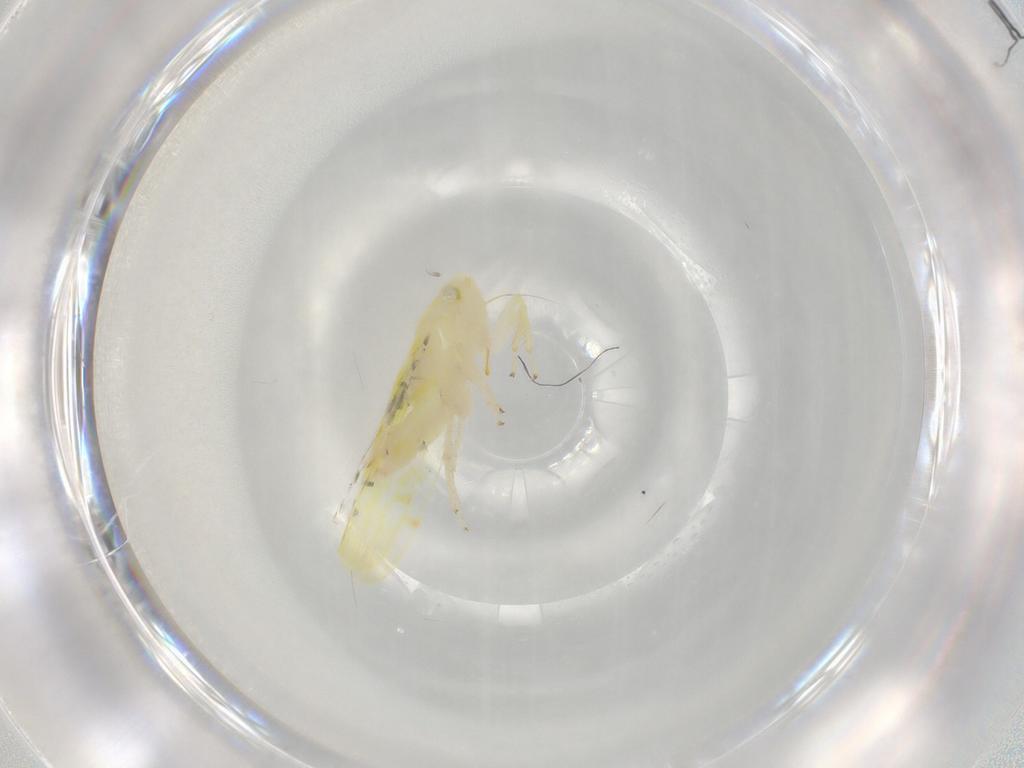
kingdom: Animalia
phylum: Arthropoda
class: Insecta
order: Hemiptera
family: Cicadellidae
